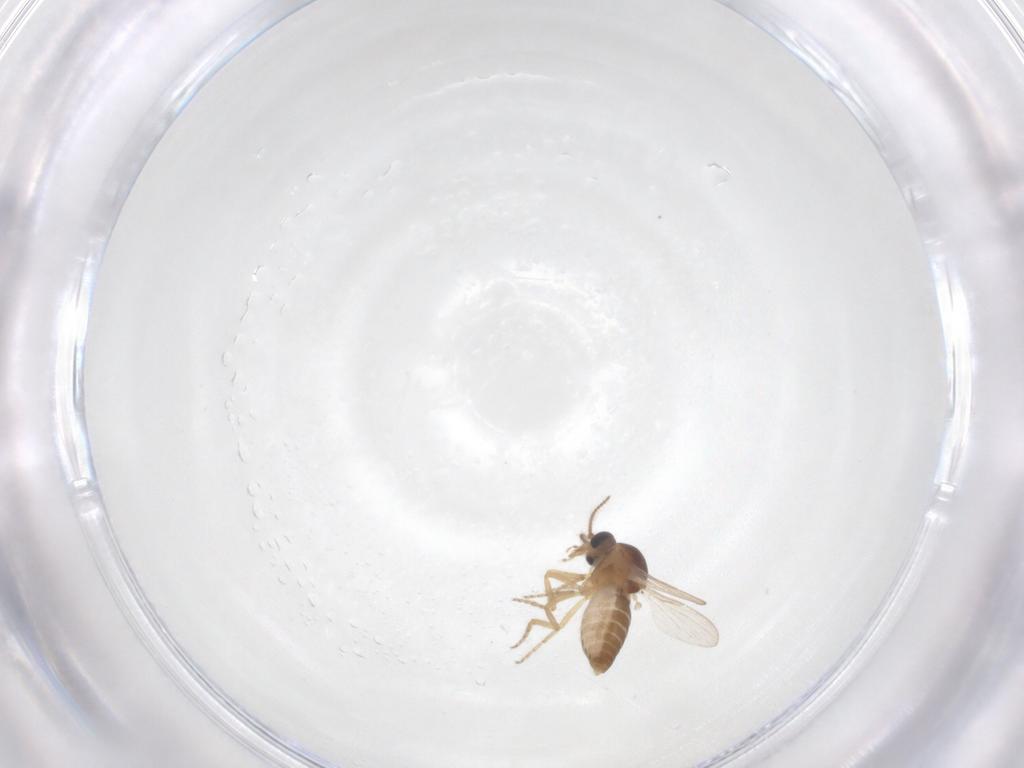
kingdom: Animalia
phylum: Arthropoda
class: Insecta
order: Diptera
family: Ceratopogonidae
